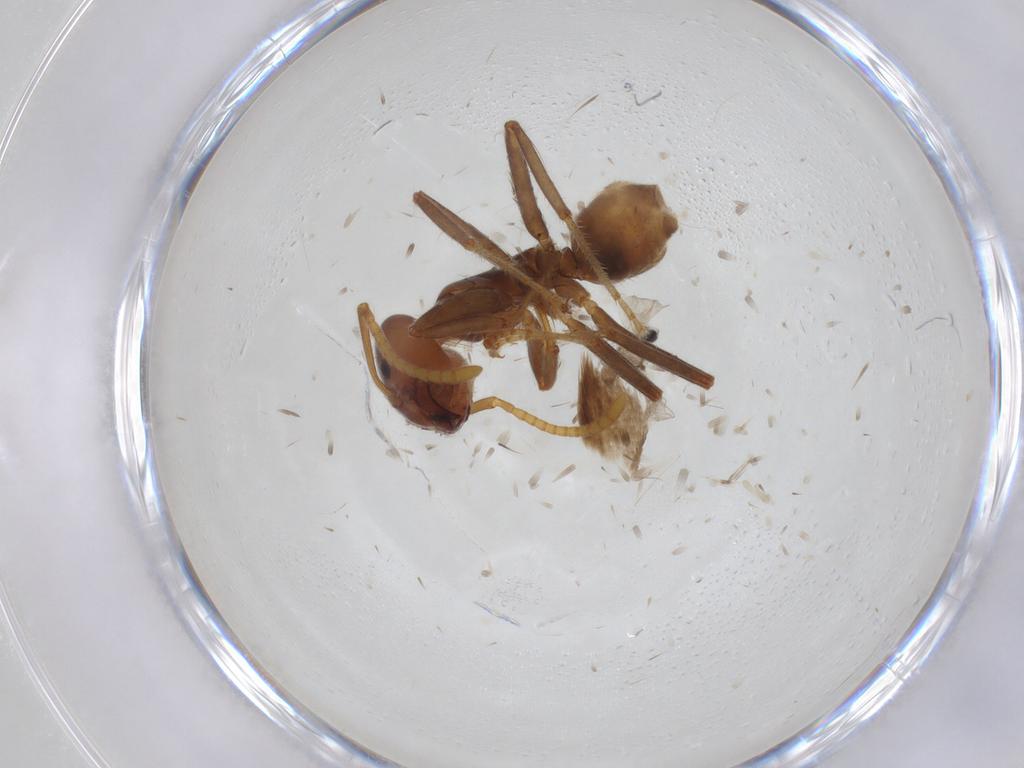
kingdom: Animalia
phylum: Arthropoda
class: Insecta
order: Hymenoptera
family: Formicidae
